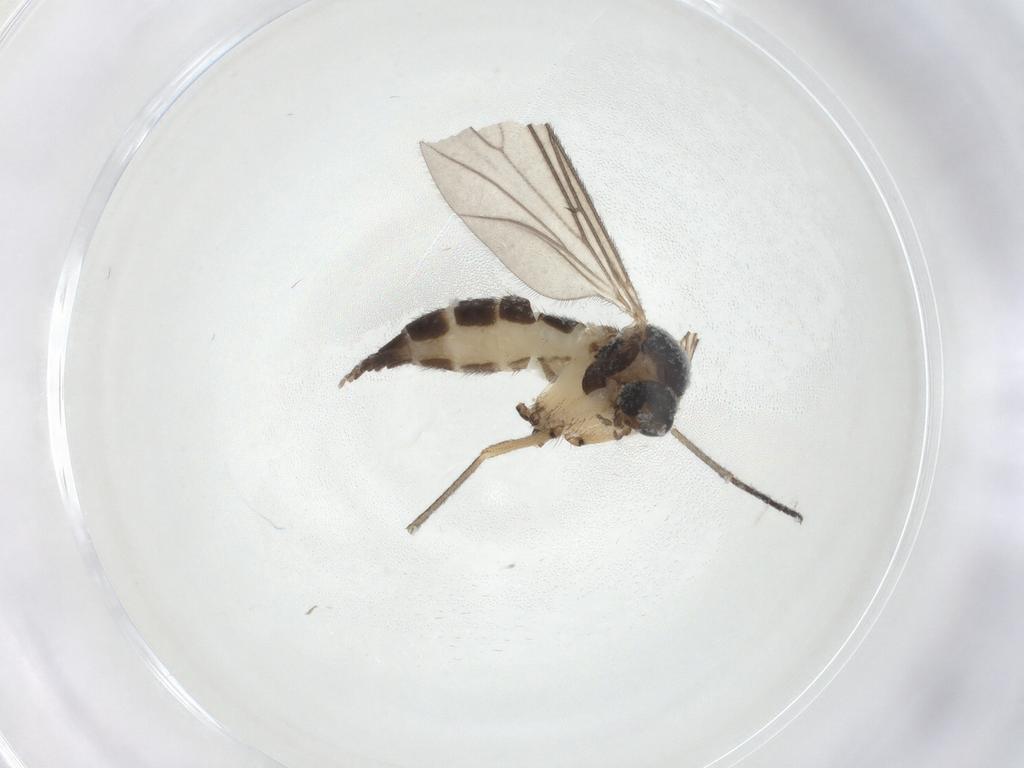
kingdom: Animalia
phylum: Arthropoda
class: Insecta
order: Diptera
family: Sciaridae
